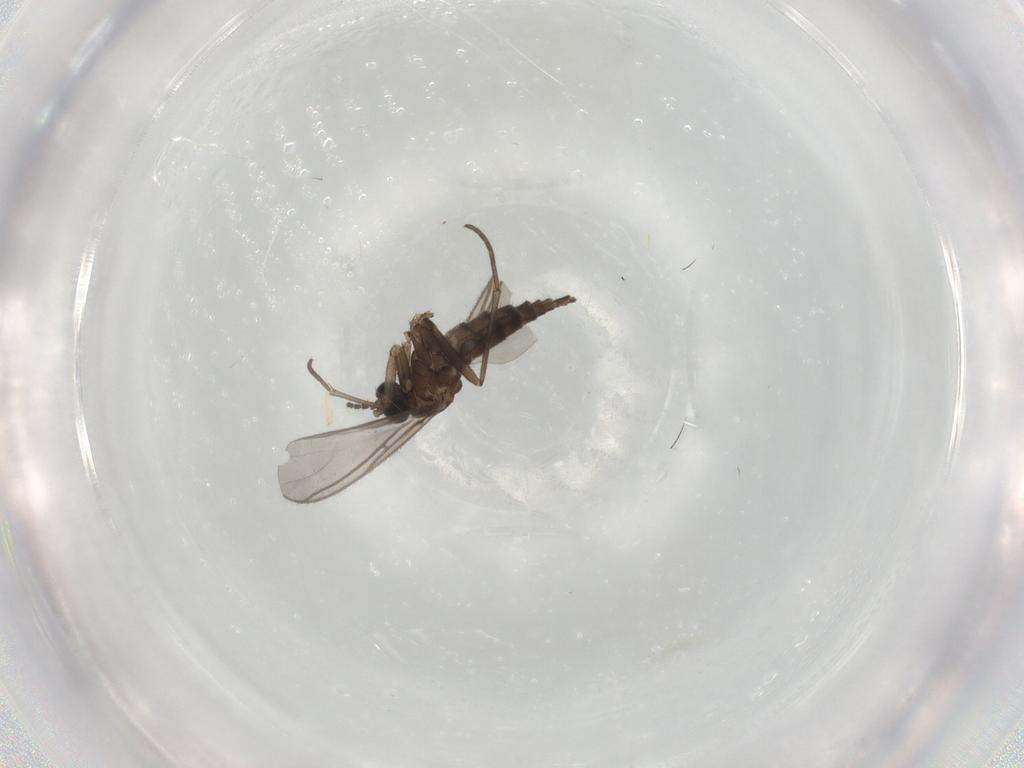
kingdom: Animalia
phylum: Arthropoda
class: Insecta
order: Diptera
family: Sciaridae
